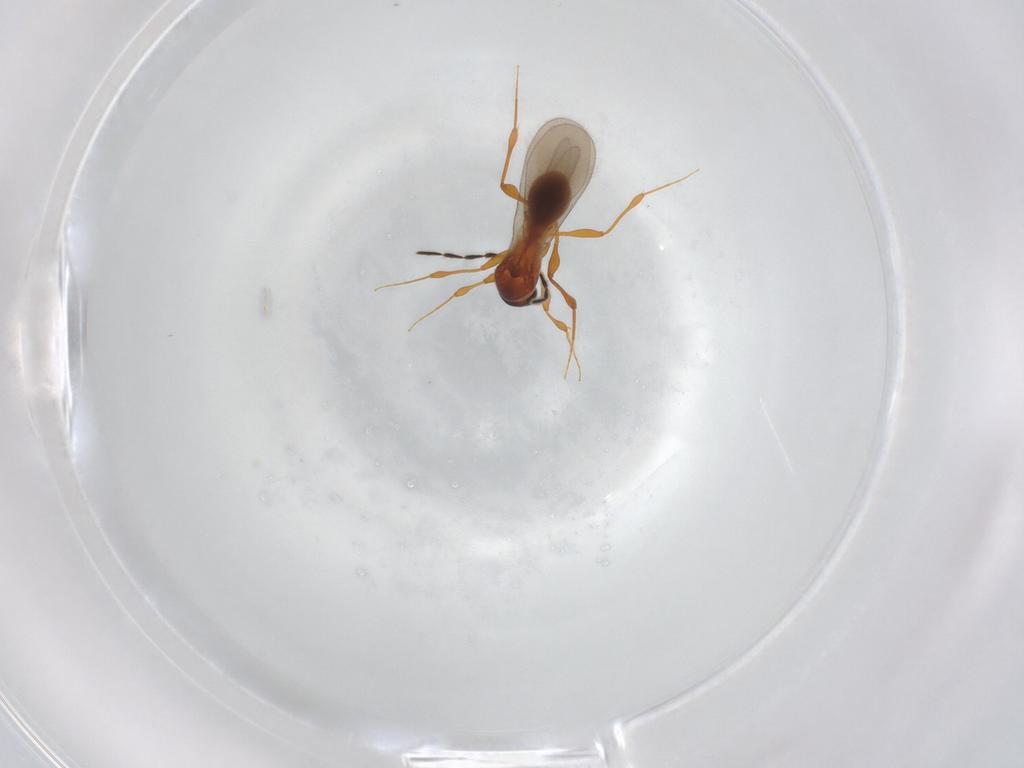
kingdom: Animalia
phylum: Arthropoda
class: Insecta
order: Hymenoptera
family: Platygastridae
